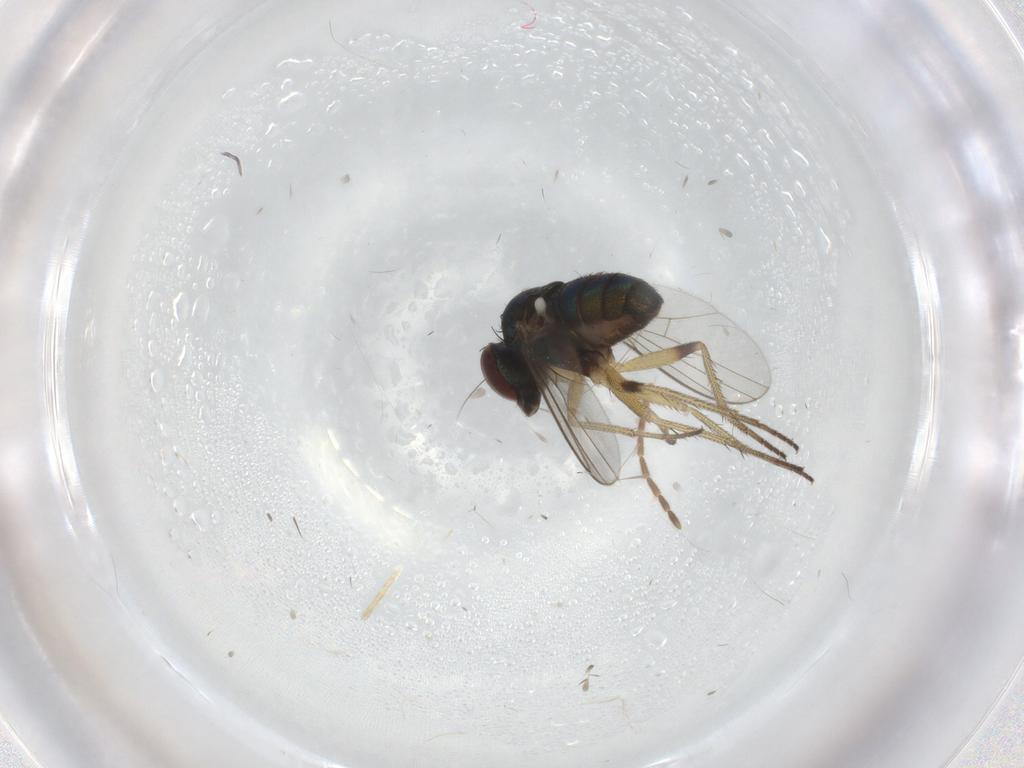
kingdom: Animalia
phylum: Arthropoda
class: Insecta
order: Diptera
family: Dolichopodidae
